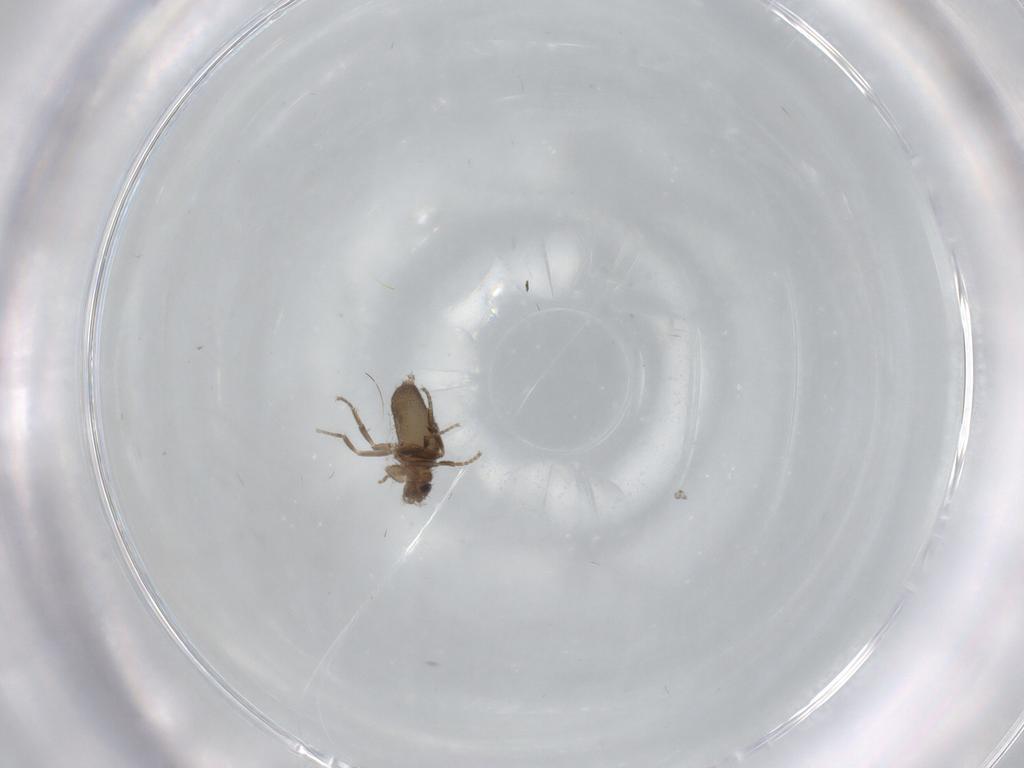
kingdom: Animalia
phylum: Arthropoda
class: Insecta
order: Diptera
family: Phoridae
